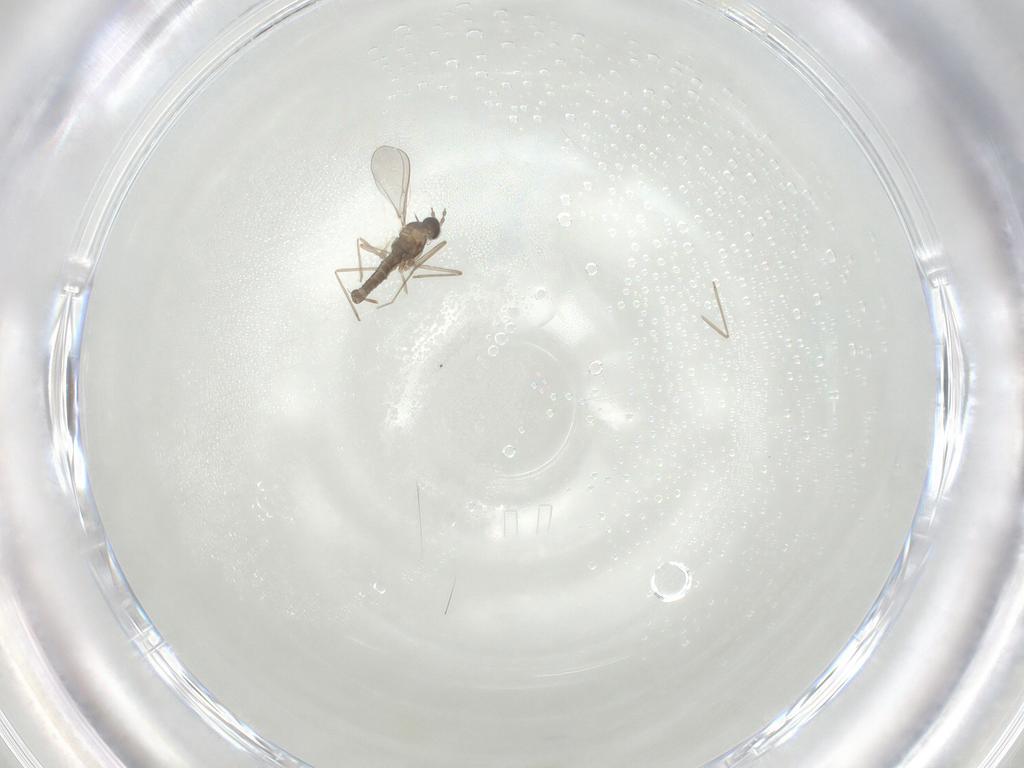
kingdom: Animalia
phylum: Arthropoda
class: Insecta
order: Diptera
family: Cecidomyiidae
